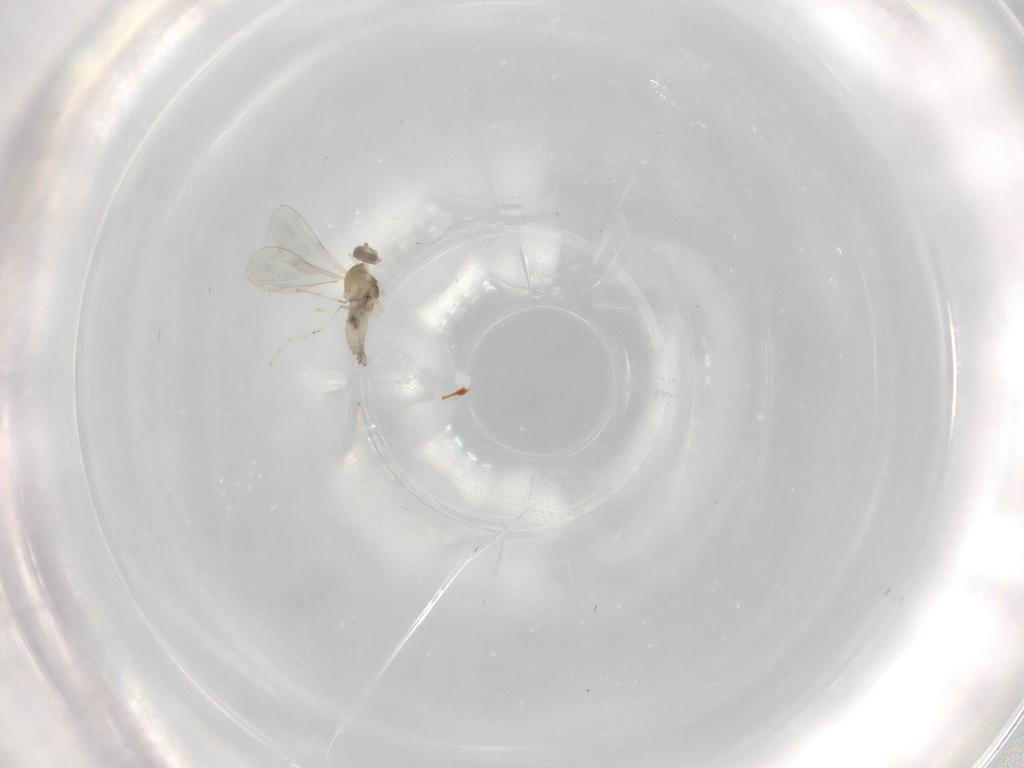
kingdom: Animalia
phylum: Arthropoda
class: Insecta
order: Diptera
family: Cecidomyiidae
